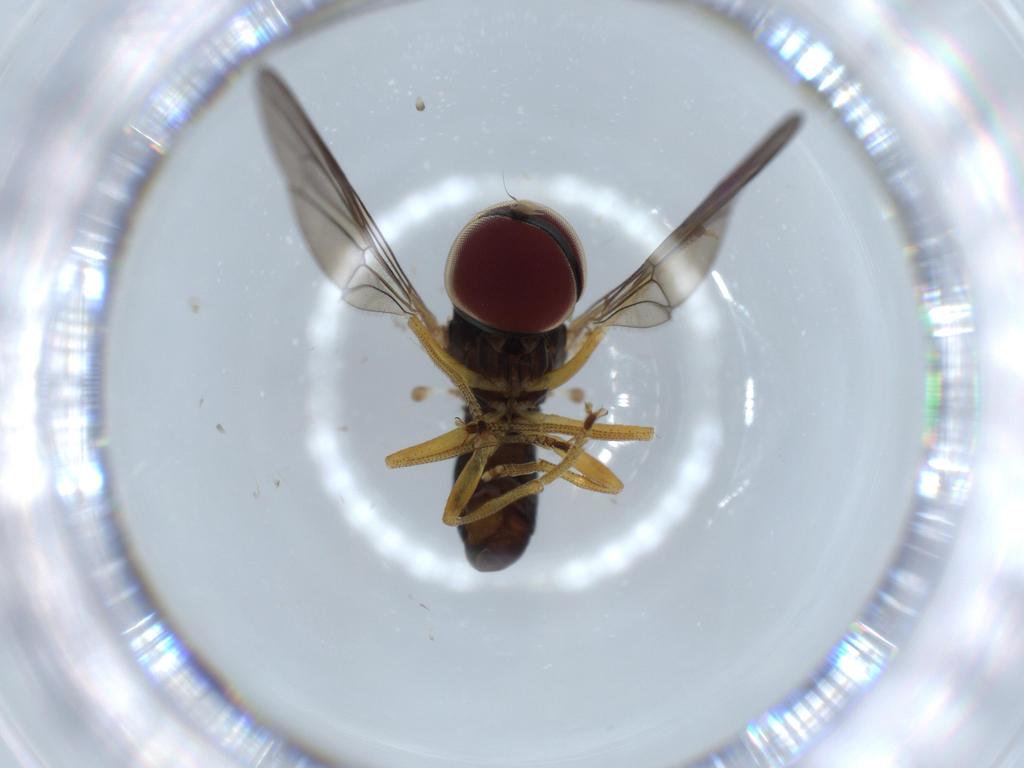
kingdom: Animalia
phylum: Arthropoda
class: Insecta
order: Diptera
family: Pipunculidae
